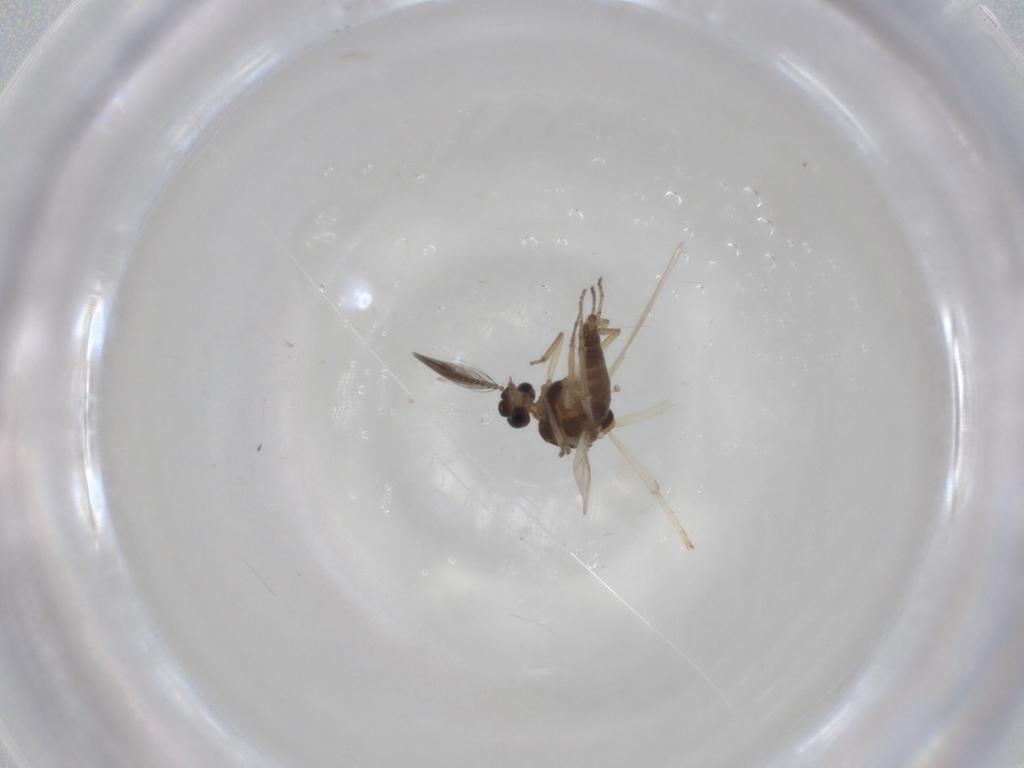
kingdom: Animalia
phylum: Arthropoda
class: Insecta
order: Diptera
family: Ceratopogonidae
